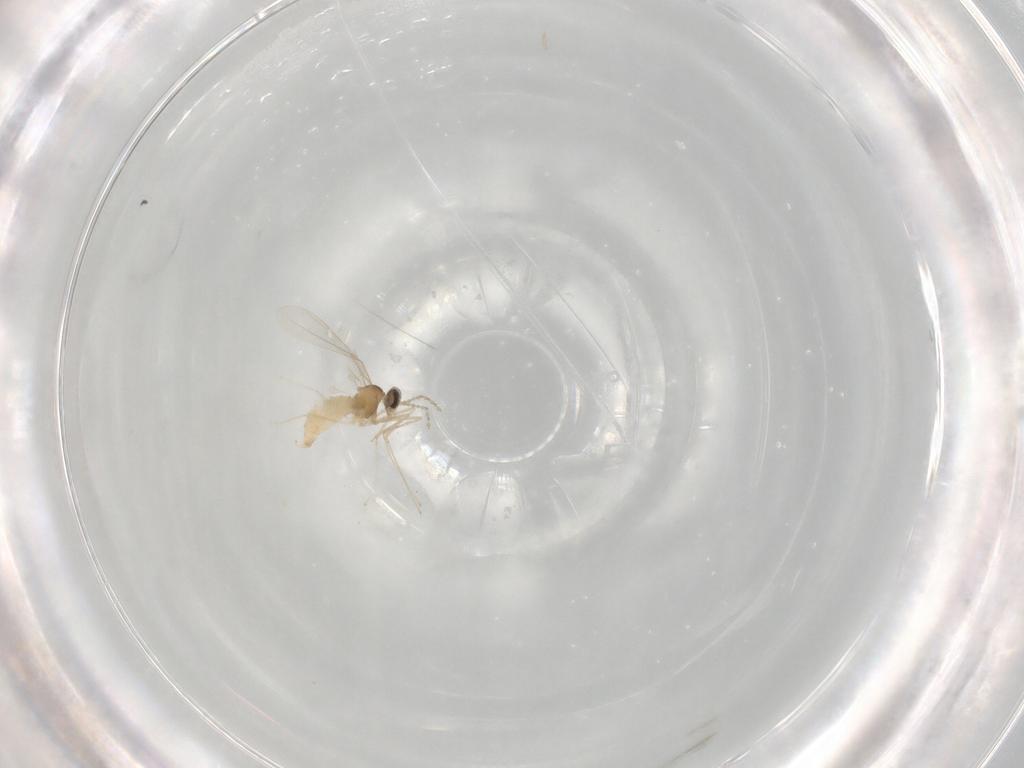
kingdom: Animalia
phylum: Arthropoda
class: Insecta
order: Diptera
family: Cecidomyiidae
